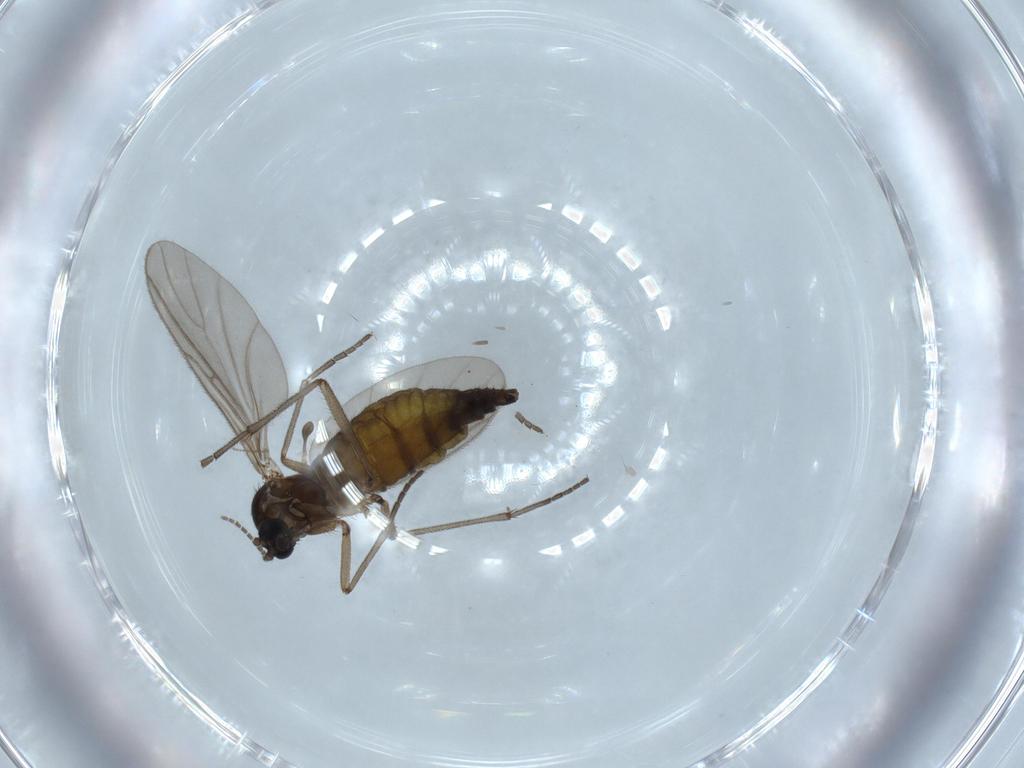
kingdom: Animalia
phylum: Arthropoda
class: Insecta
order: Diptera
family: Sciaridae
